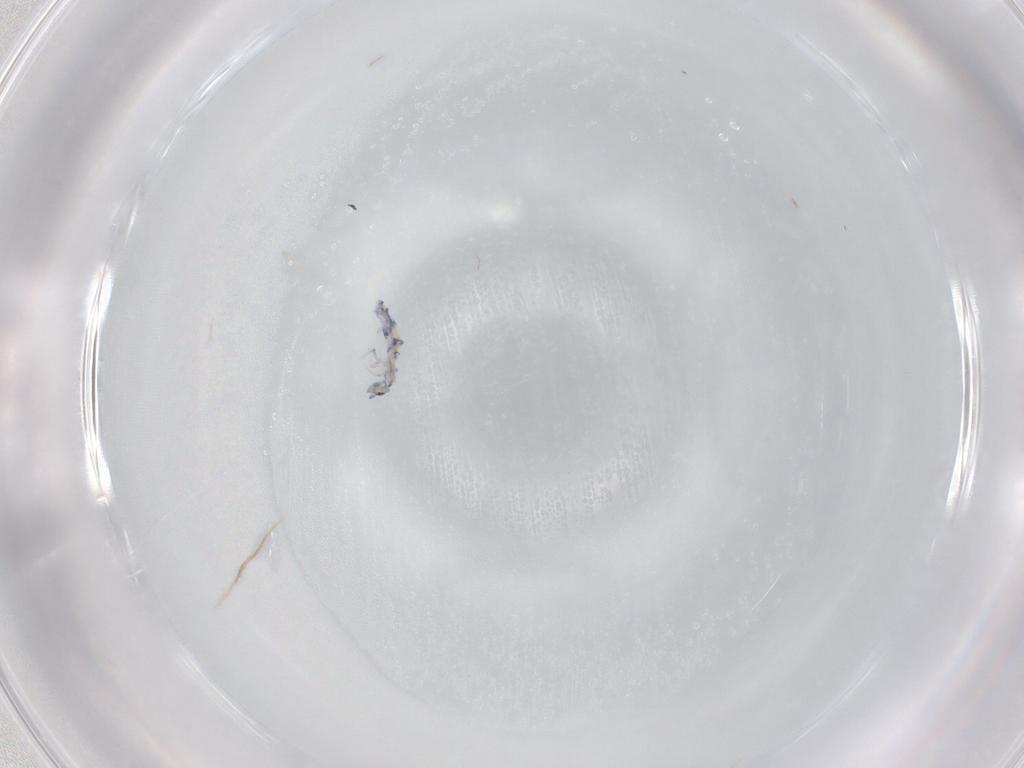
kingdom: Animalia
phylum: Arthropoda
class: Collembola
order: Entomobryomorpha
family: Entomobryidae
